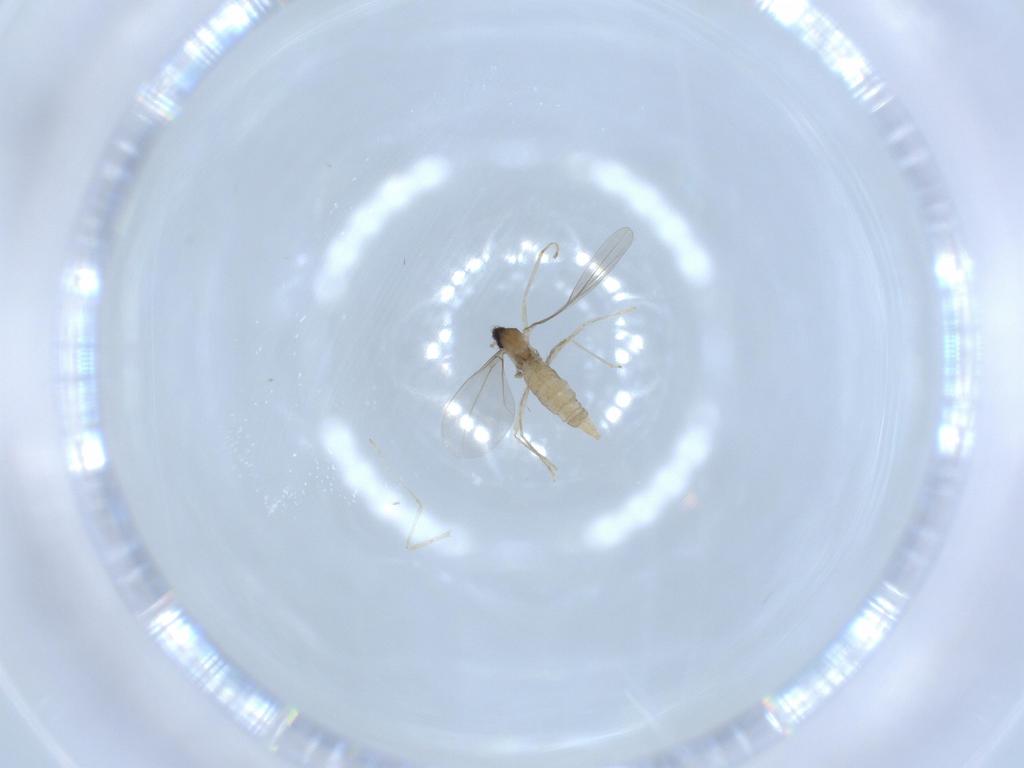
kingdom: Animalia
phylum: Arthropoda
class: Insecta
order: Diptera
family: Cecidomyiidae
